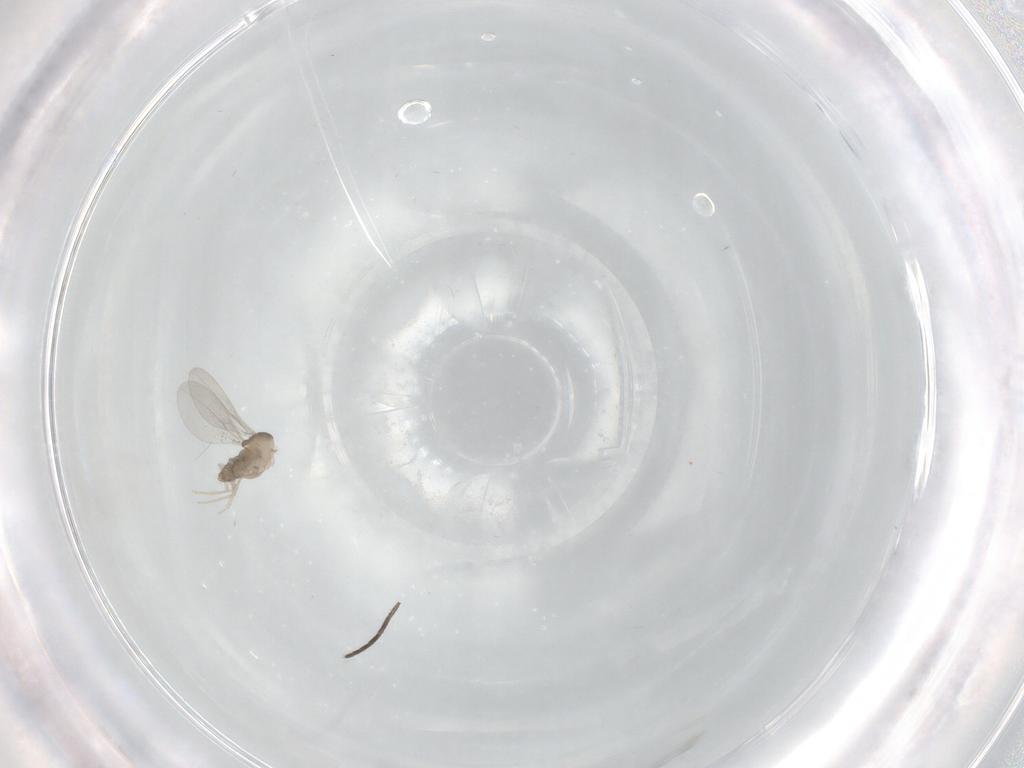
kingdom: Animalia
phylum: Arthropoda
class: Insecta
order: Diptera
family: Cecidomyiidae
